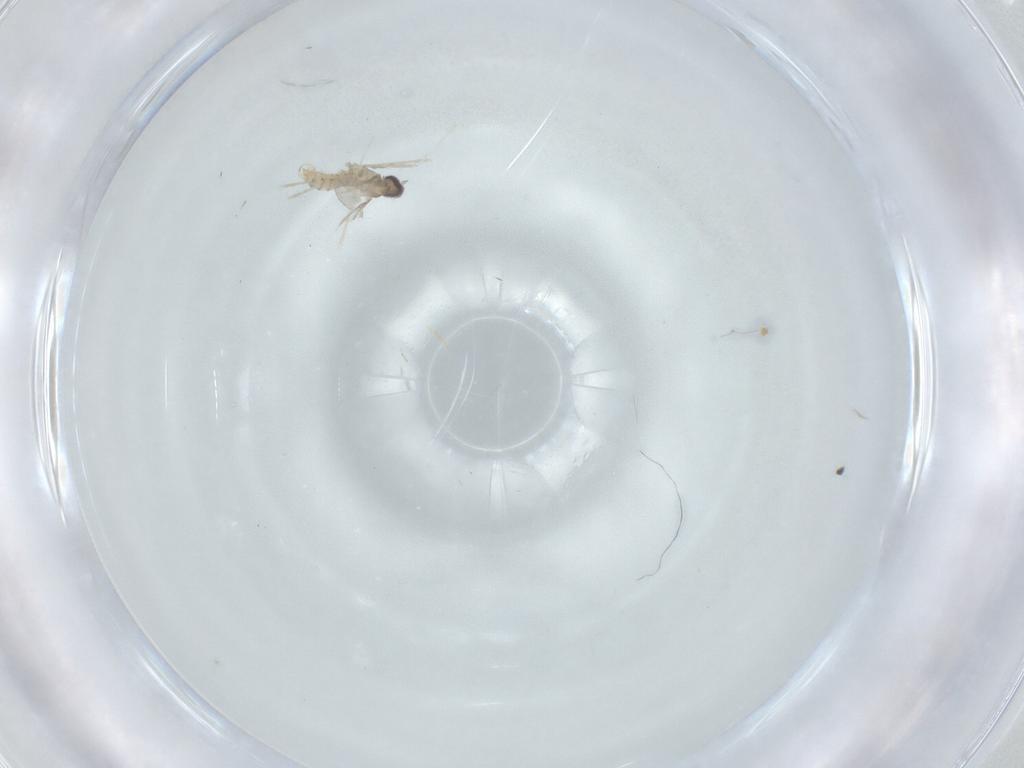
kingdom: Animalia
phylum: Arthropoda
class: Insecta
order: Diptera
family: Cecidomyiidae
